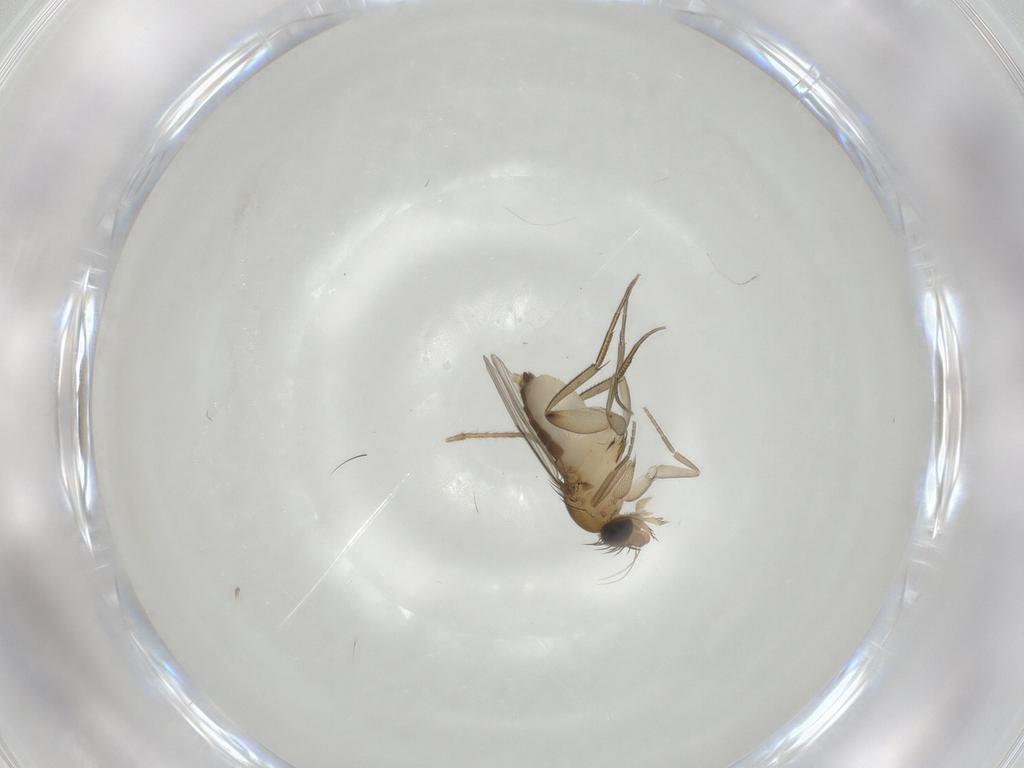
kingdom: Animalia
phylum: Arthropoda
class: Insecta
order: Diptera
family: Phoridae
